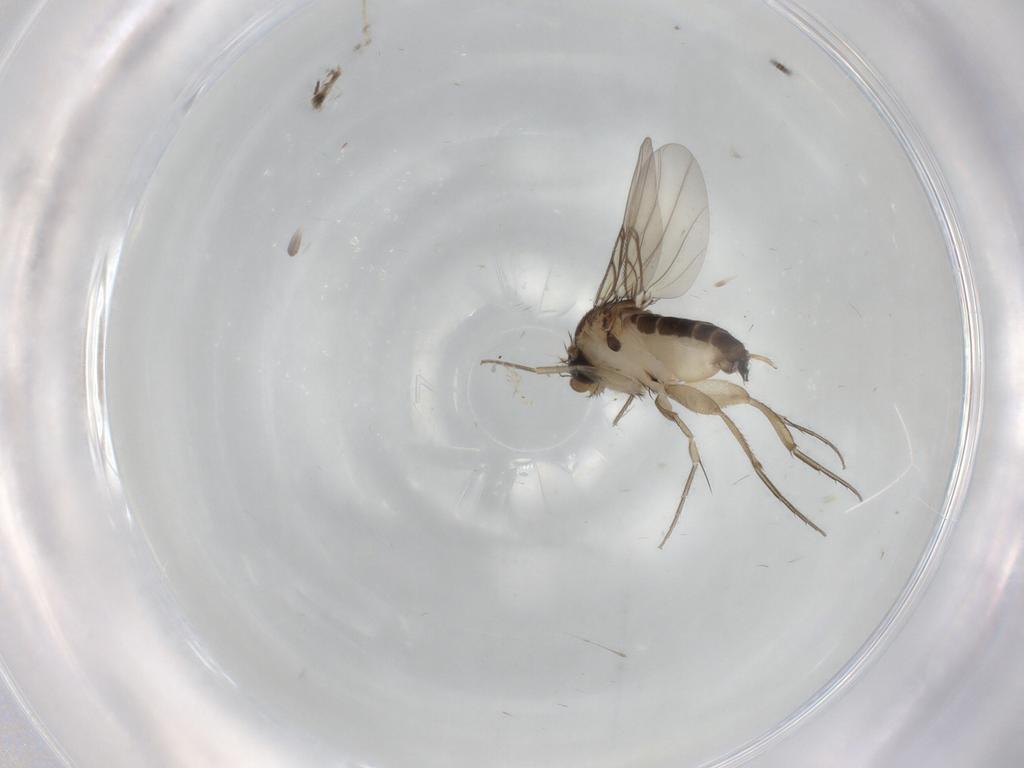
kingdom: Animalia
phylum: Arthropoda
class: Insecta
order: Diptera
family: Phoridae
